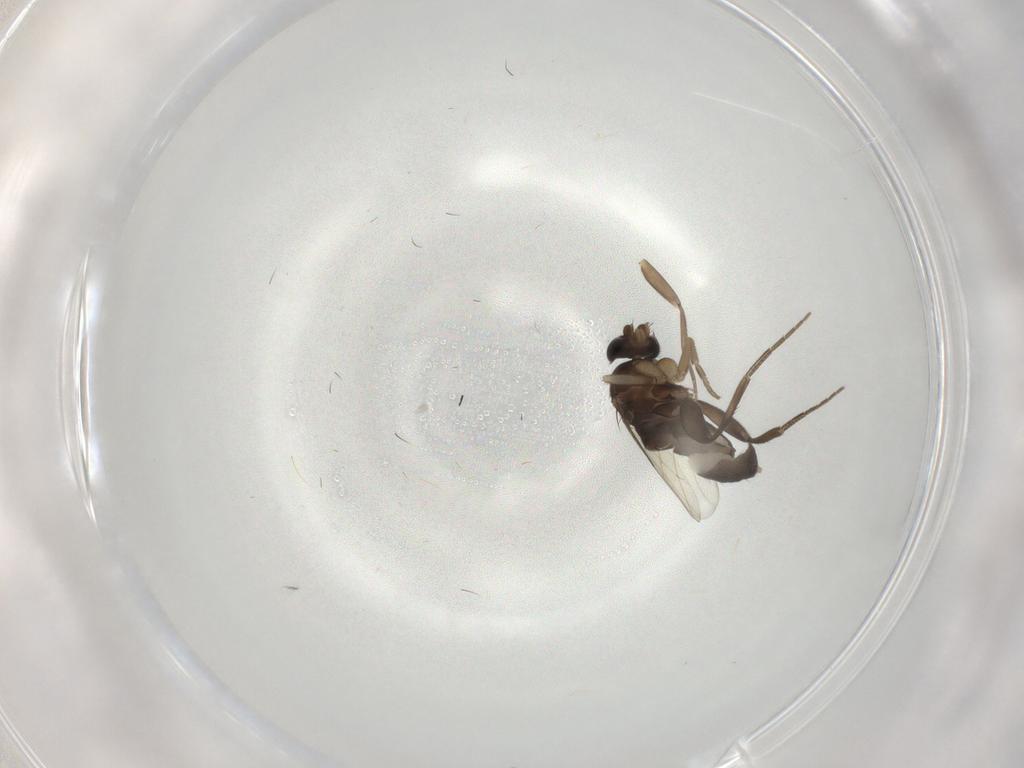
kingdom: Animalia
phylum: Arthropoda
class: Insecta
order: Diptera
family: Phoridae
